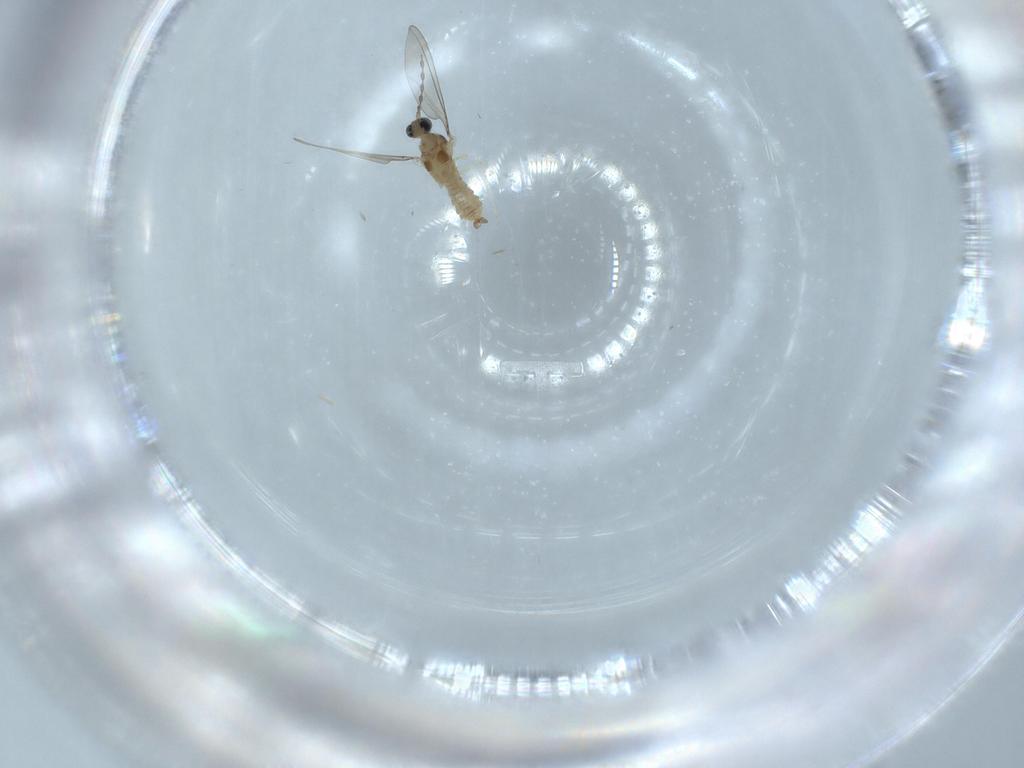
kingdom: Animalia
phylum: Arthropoda
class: Insecta
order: Diptera
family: Cecidomyiidae
